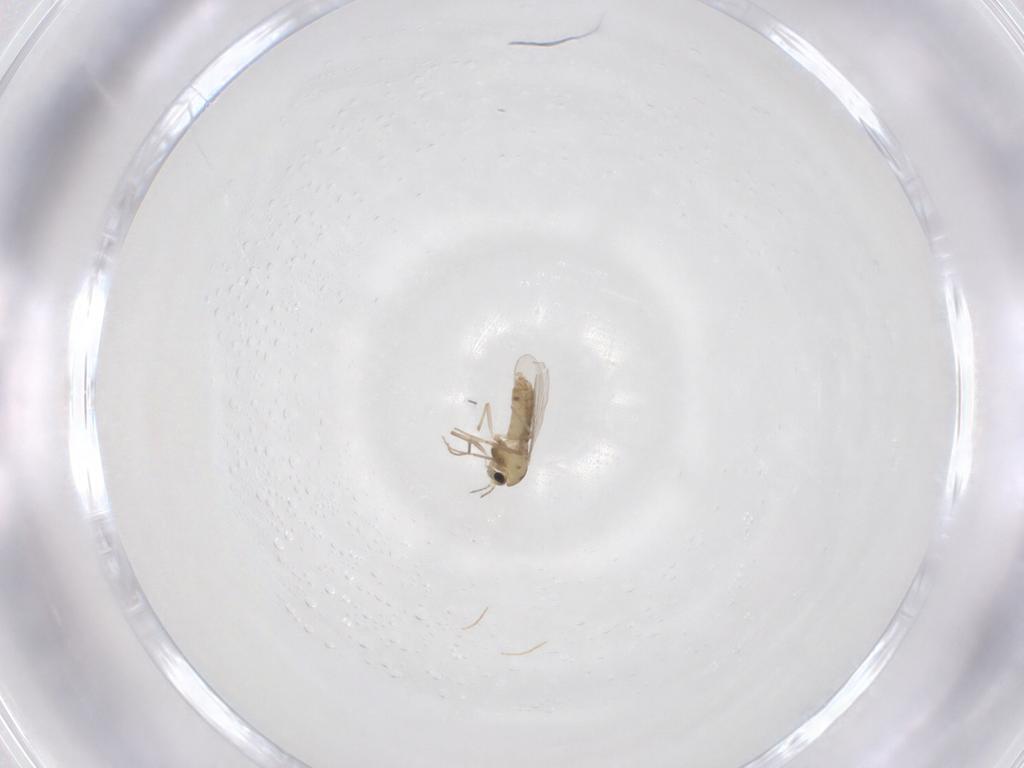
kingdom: Animalia
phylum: Arthropoda
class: Insecta
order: Diptera
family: Chironomidae
